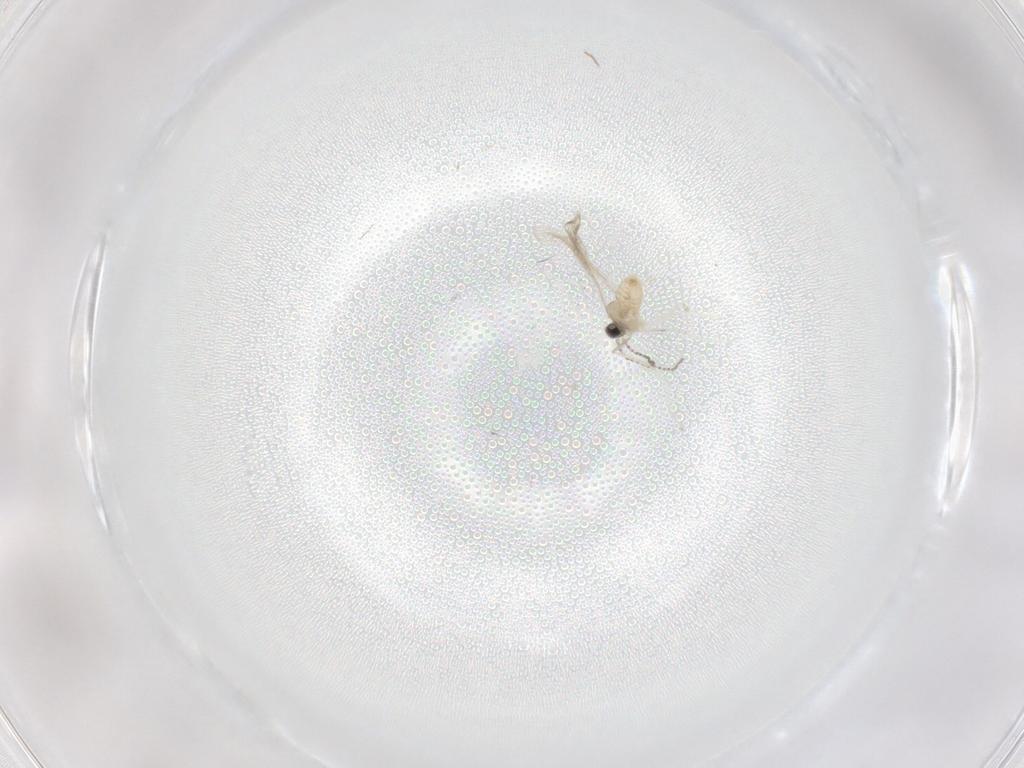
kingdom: Animalia
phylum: Arthropoda
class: Insecta
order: Diptera
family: Cecidomyiidae
